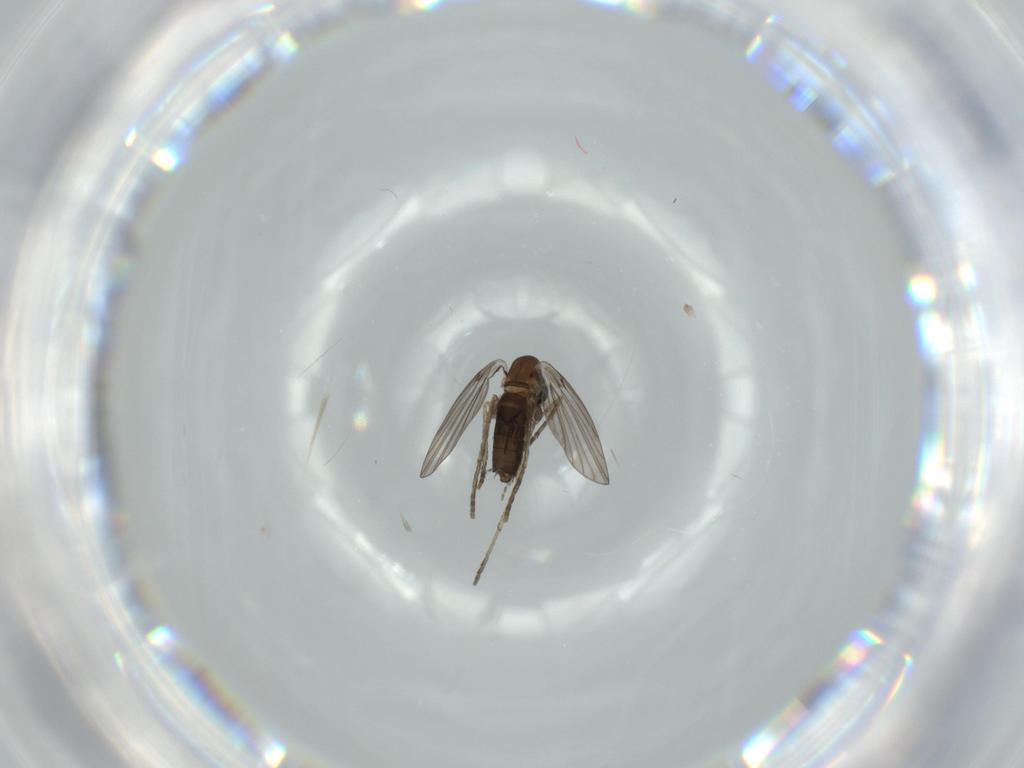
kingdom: Animalia
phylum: Arthropoda
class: Insecta
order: Diptera
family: Psychodidae
